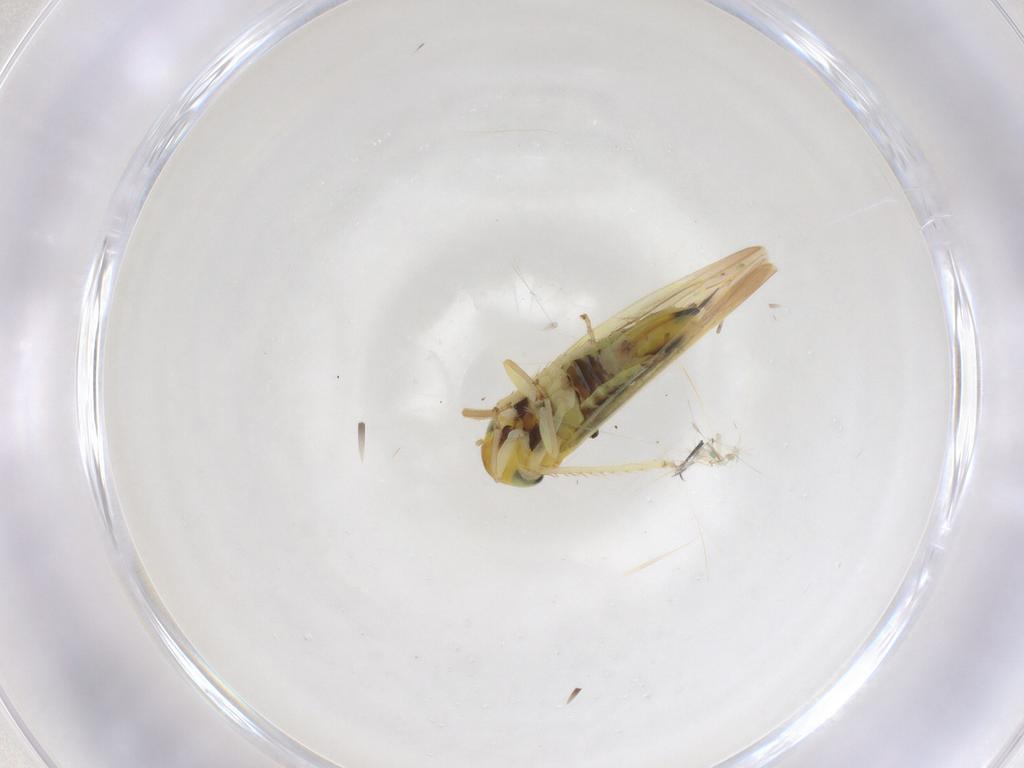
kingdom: Animalia
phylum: Arthropoda
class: Insecta
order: Hemiptera
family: Cicadellidae
